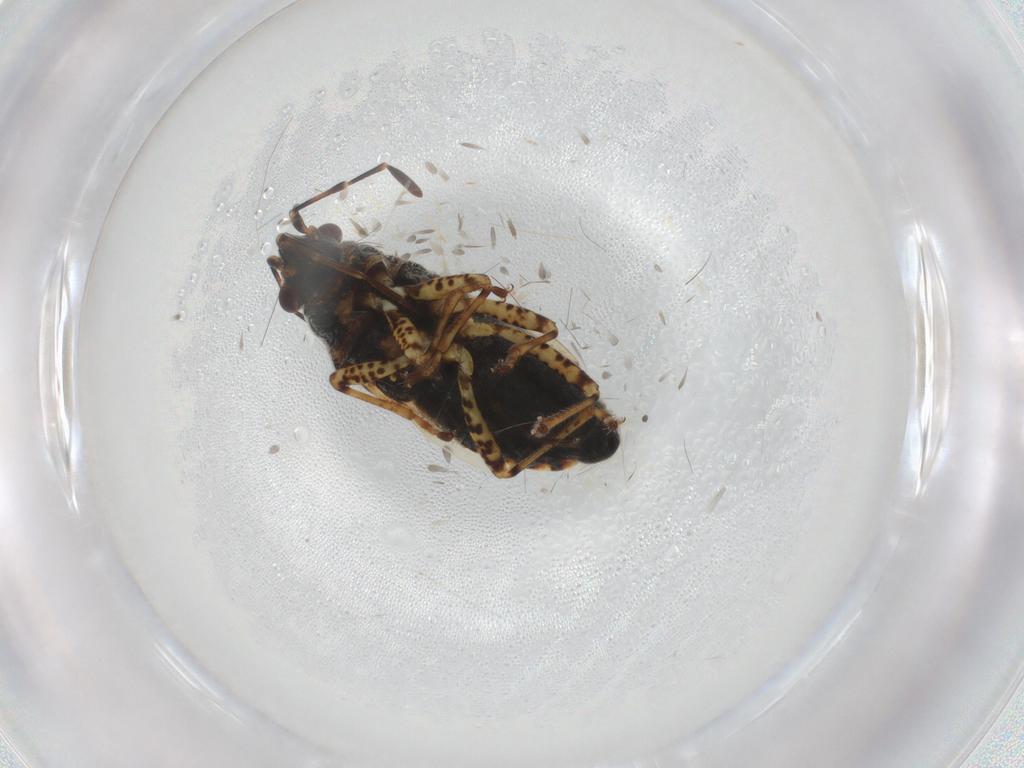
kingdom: Animalia
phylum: Arthropoda
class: Insecta
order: Hemiptera
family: Lygaeidae
